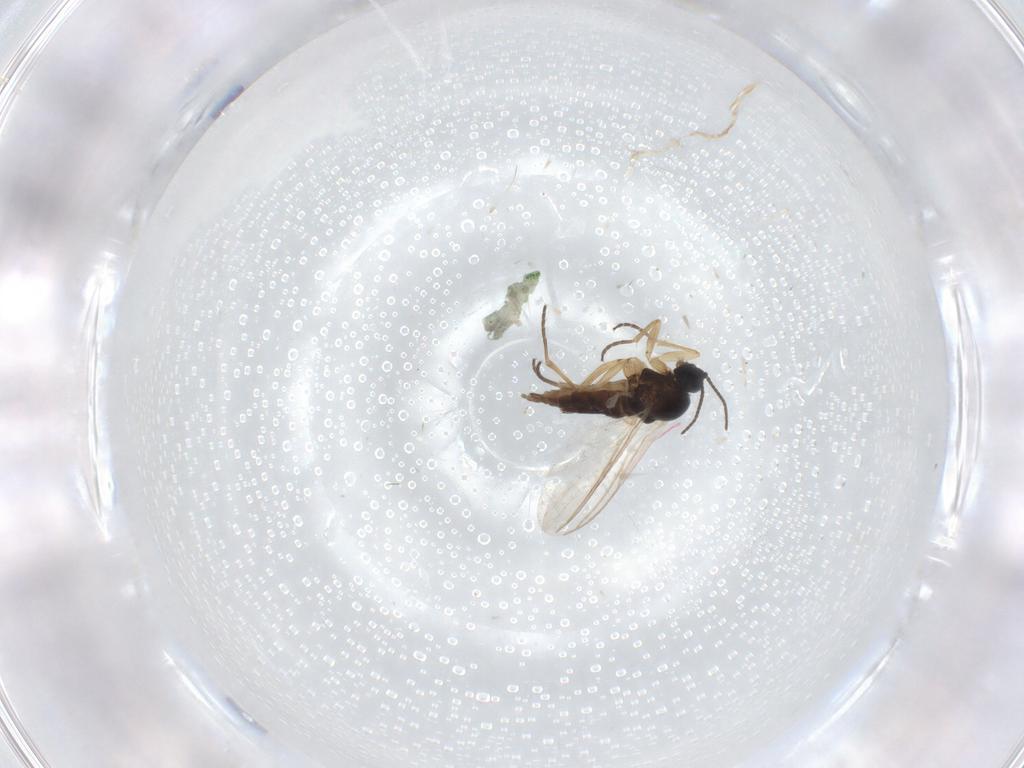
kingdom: Animalia
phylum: Arthropoda
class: Insecta
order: Diptera
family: Sciaridae
